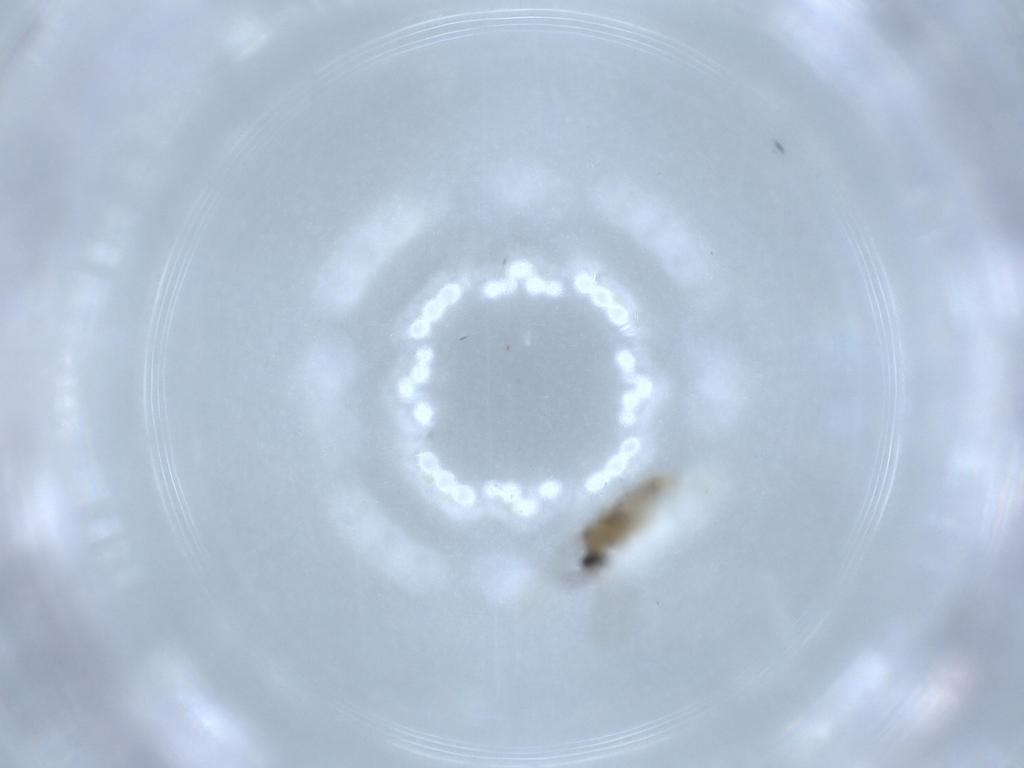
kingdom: Animalia
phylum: Arthropoda
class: Insecta
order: Diptera
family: Cecidomyiidae
